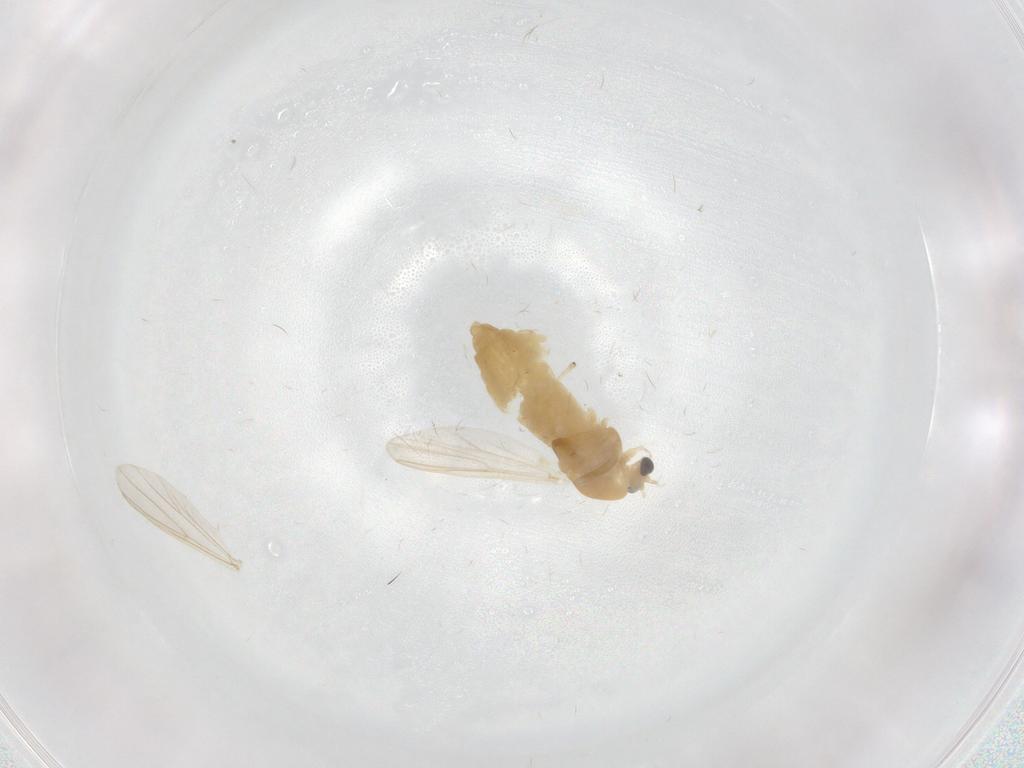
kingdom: Animalia
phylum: Arthropoda
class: Insecta
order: Diptera
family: Chironomidae
